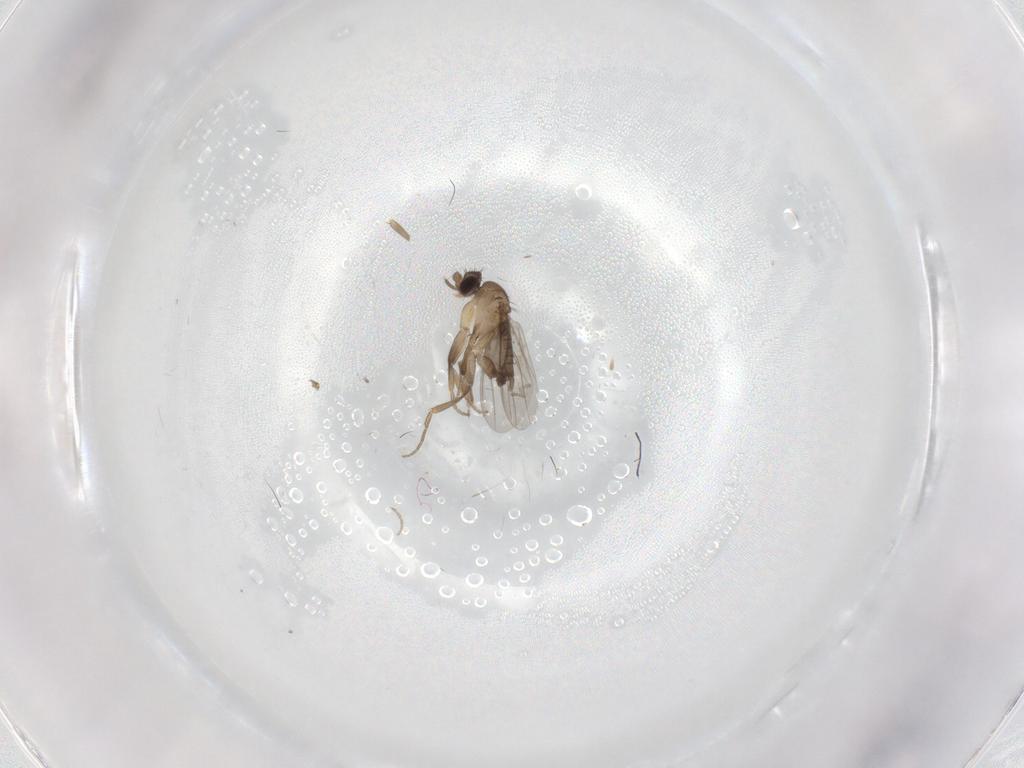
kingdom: Animalia
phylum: Arthropoda
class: Insecta
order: Diptera
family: Phoridae
